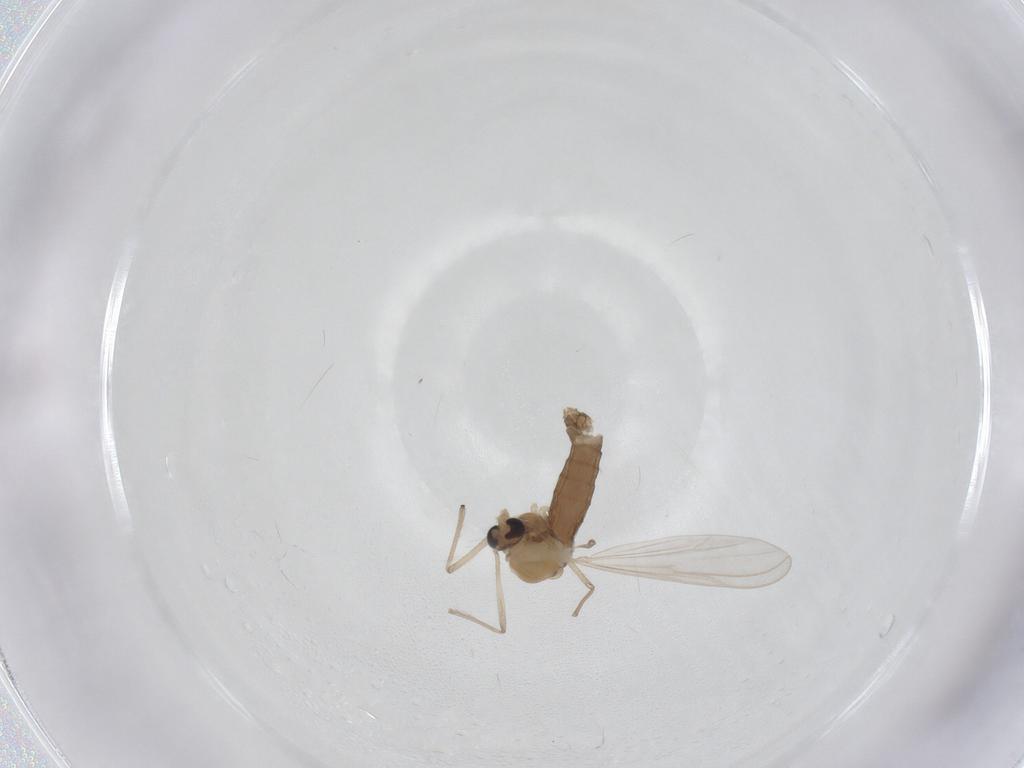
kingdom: Animalia
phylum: Arthropoda
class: Insecta
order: Diptera
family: Chironomidae
